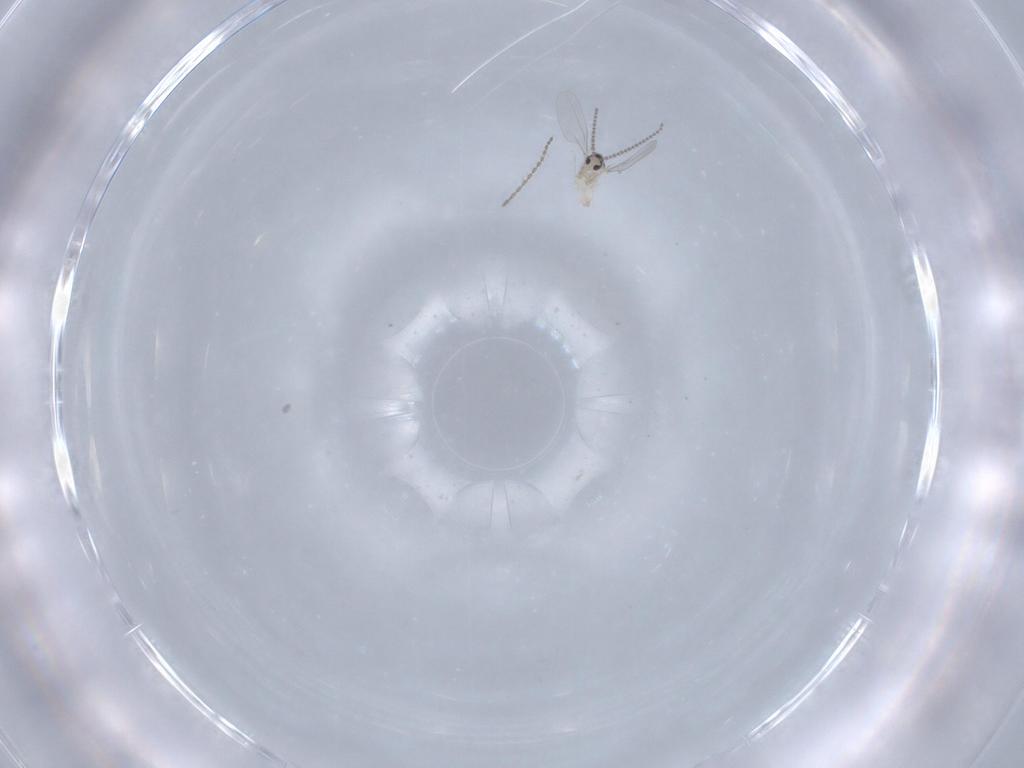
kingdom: Animalia
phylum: Arthropoda
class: Insecta
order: Diptera
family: Cecidomyiidae
